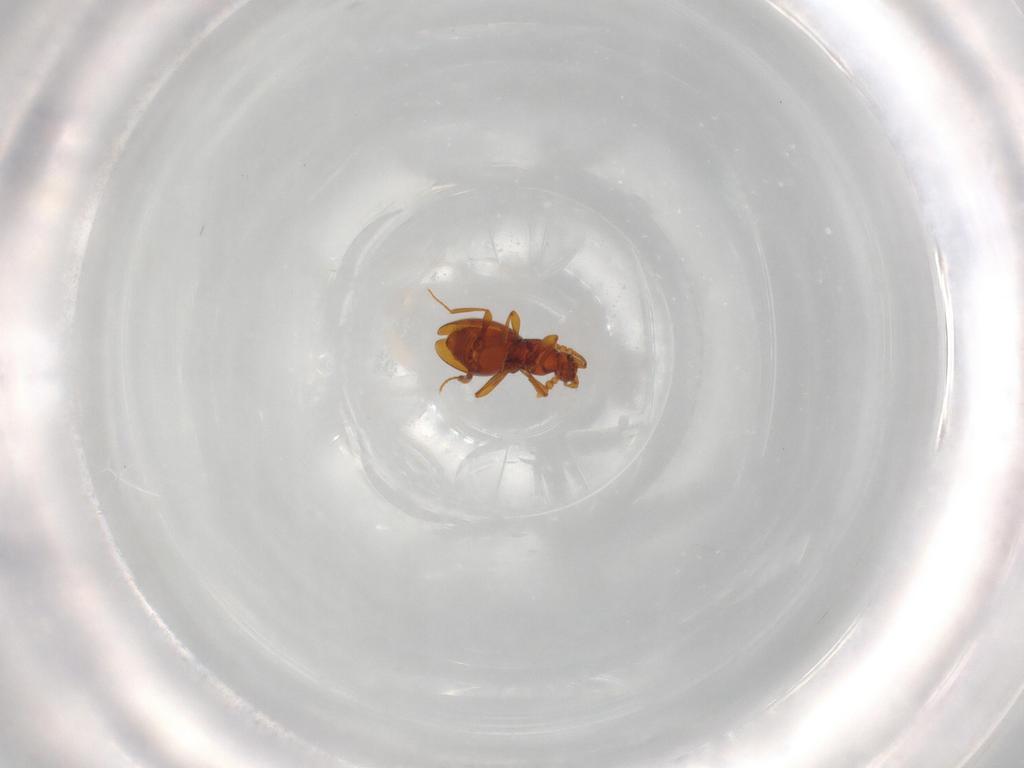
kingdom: Animalia
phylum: Arthropoda
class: Insecta
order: Coleoptera
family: Staphylinidae
